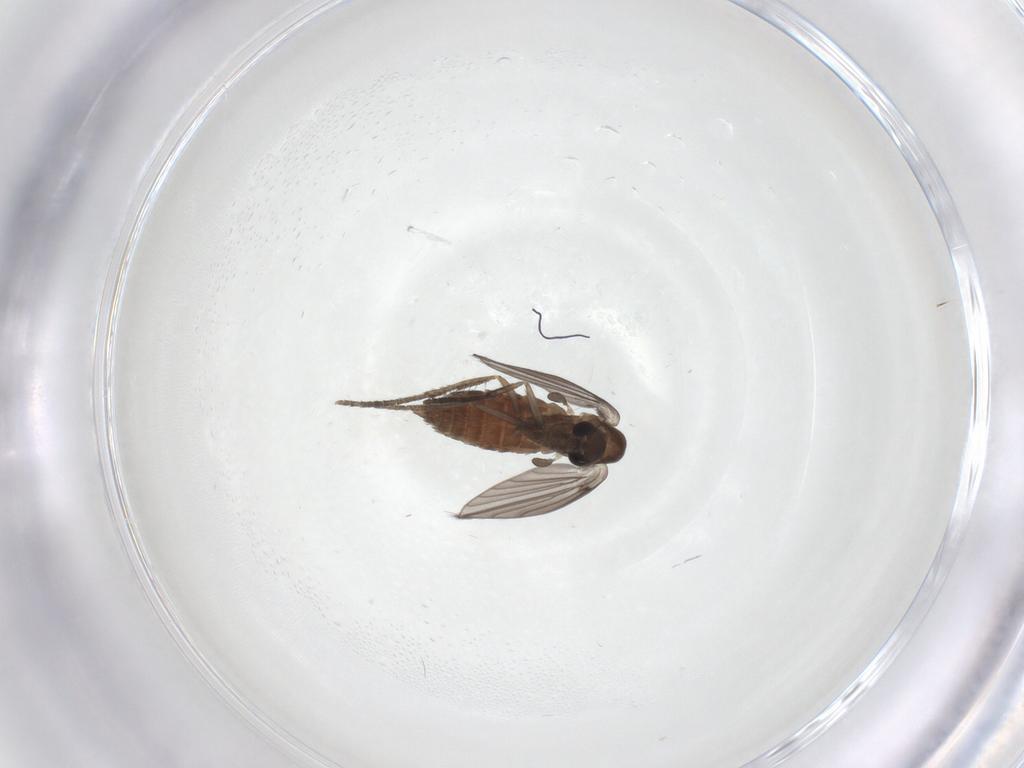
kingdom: Animalia
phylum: Arthropoda
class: Insecta
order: Diptera
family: Psychodidae
